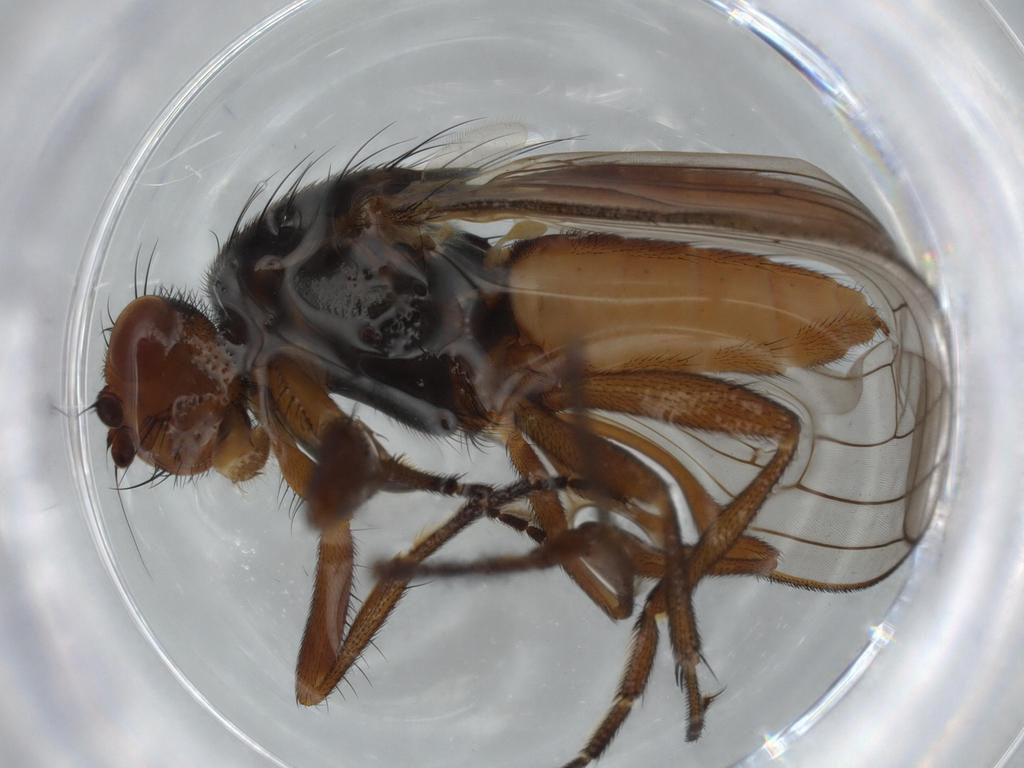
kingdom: Animalia
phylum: Arthropoda
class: Insecta
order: Diptera
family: Heleomyzidae
